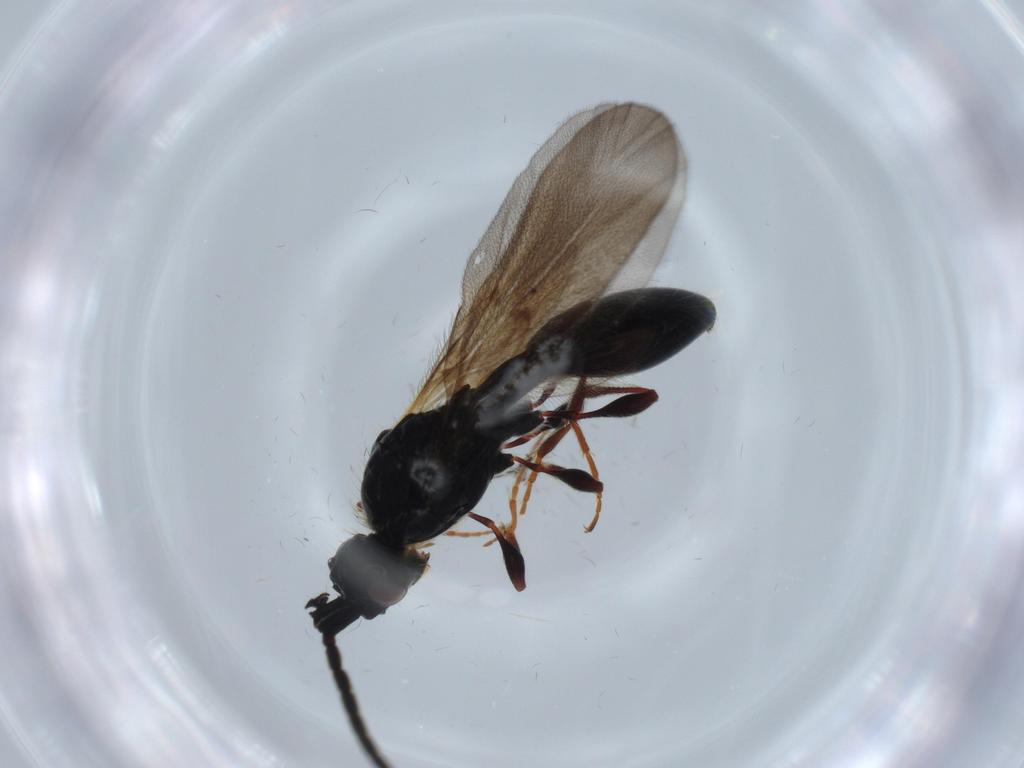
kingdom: Animalia
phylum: Arthropoda
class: Insecta
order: Hymenoptera
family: Diapriidae
